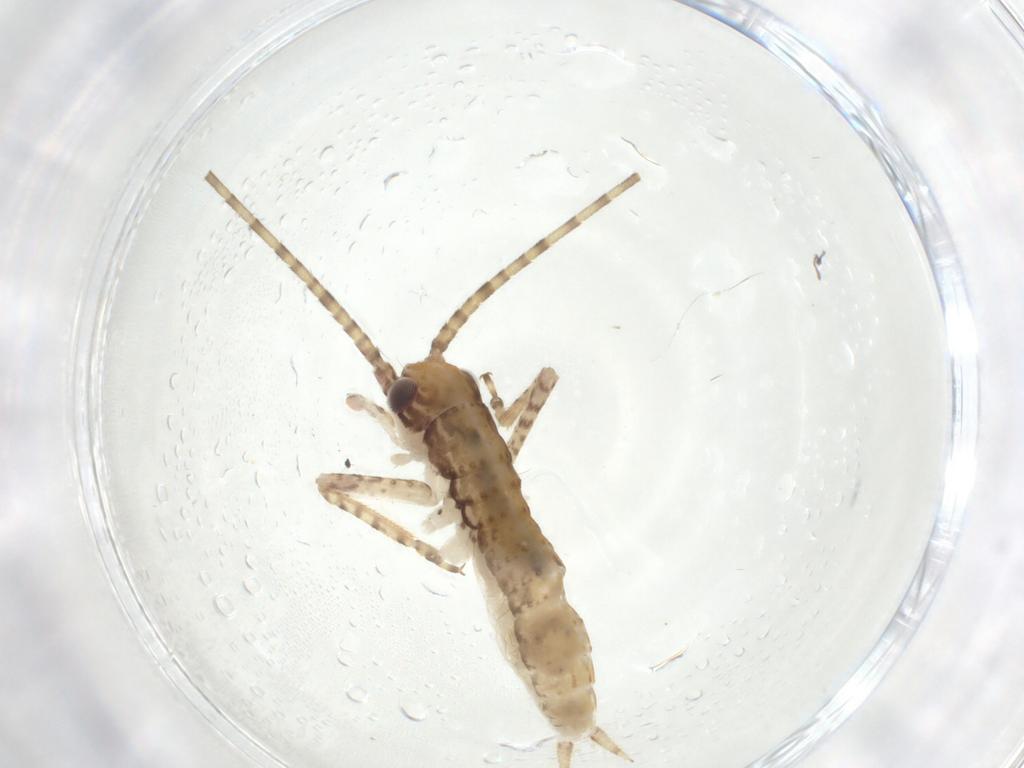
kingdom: Animalia
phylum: Arthropoda
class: Insecta
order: Orthoptera
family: Gryllidae
